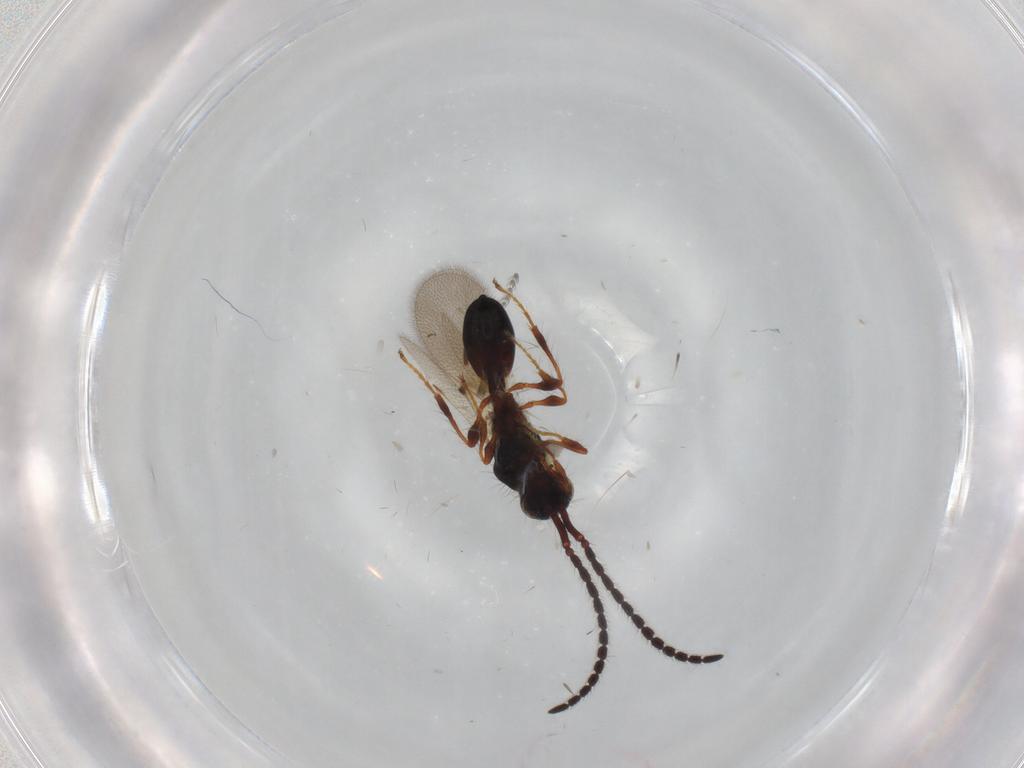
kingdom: Animalia
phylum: Arthropoda
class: Insecta
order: Hymenoptera
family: Diapriidae
